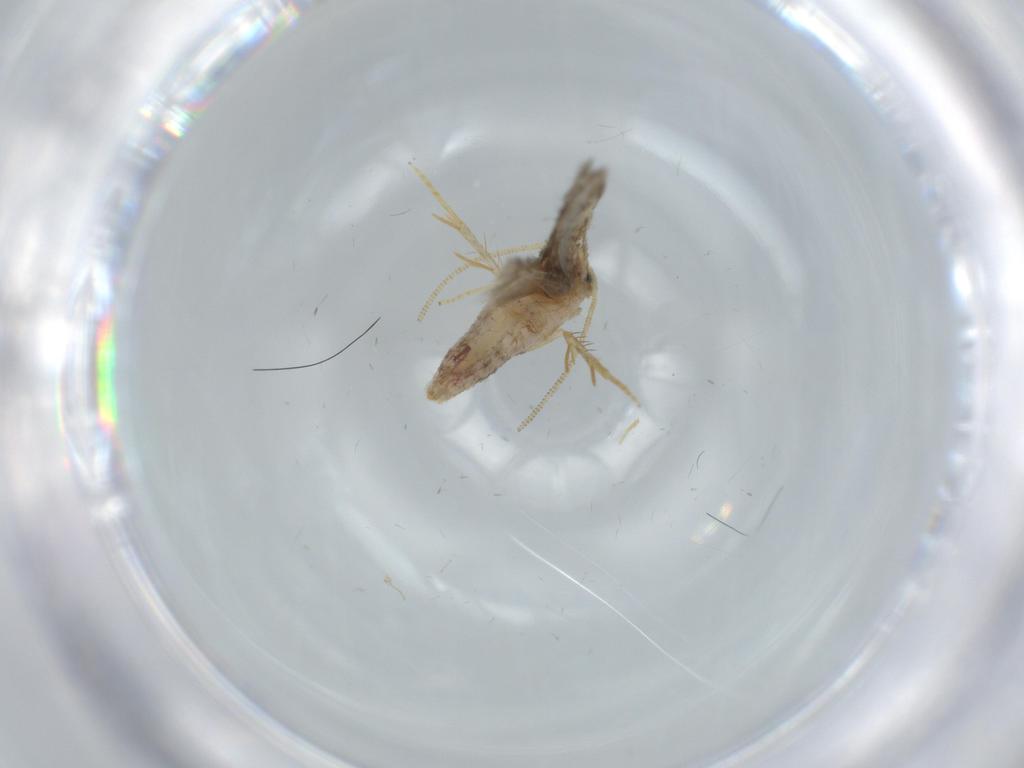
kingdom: Animalia
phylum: Arthropoda
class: Insecta
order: Lepidoptera
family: Nepticulidae
